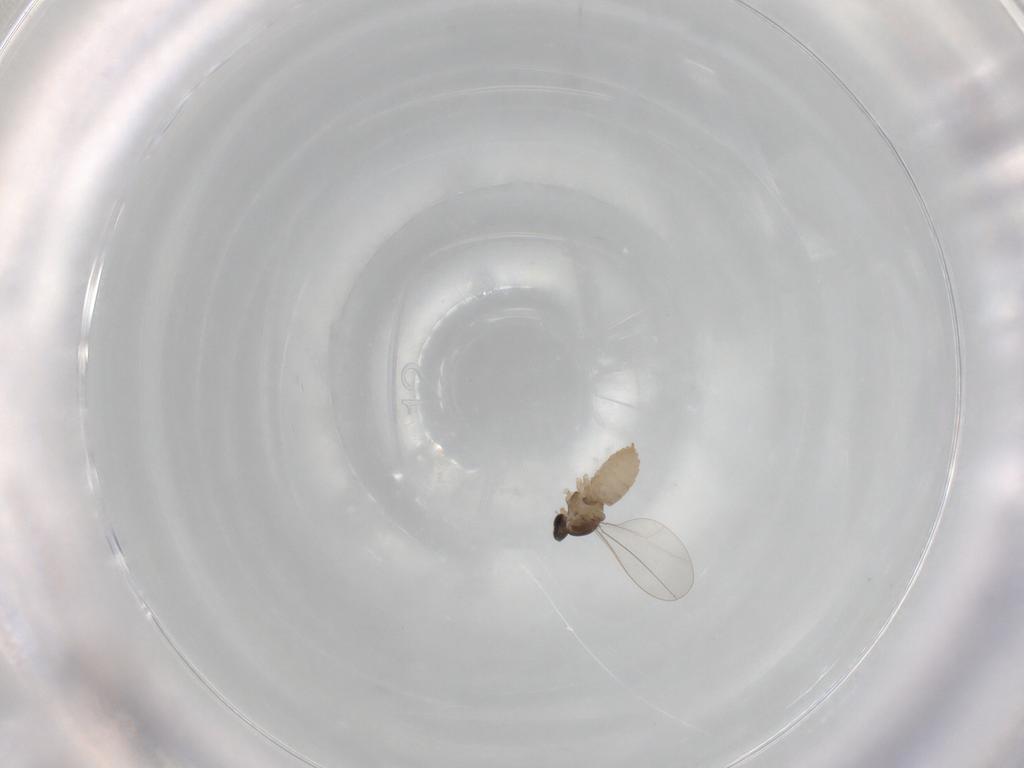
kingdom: Animalia
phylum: Arthropoda
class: Insecta
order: Diptera
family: Cecidomyiidae
